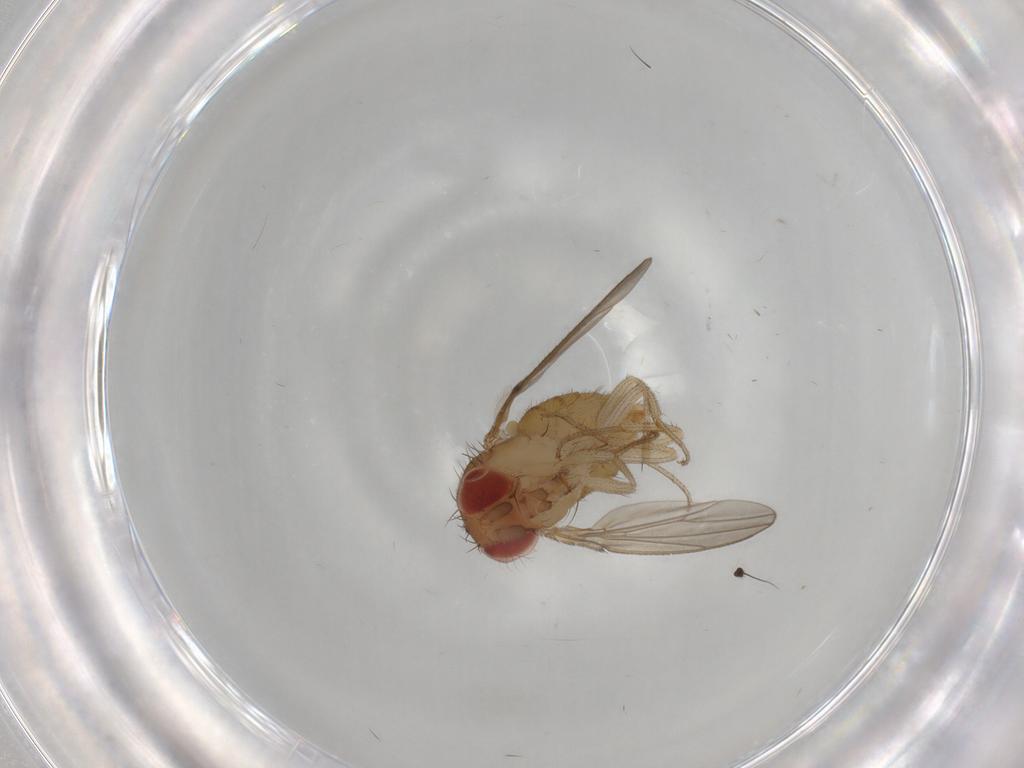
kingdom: Animalia
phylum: Arthropoda
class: Insecta
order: Diptera
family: Drosophilidae
